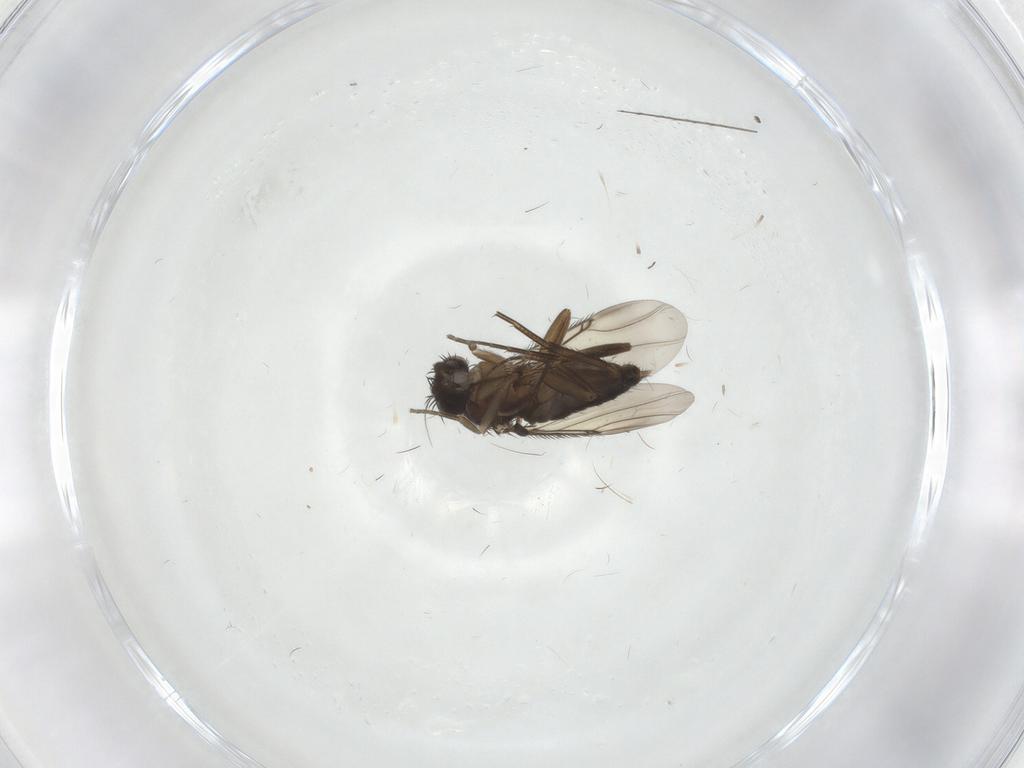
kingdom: Animalia
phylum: Arthropoda
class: Insecta
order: Diptera
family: Phoridae
